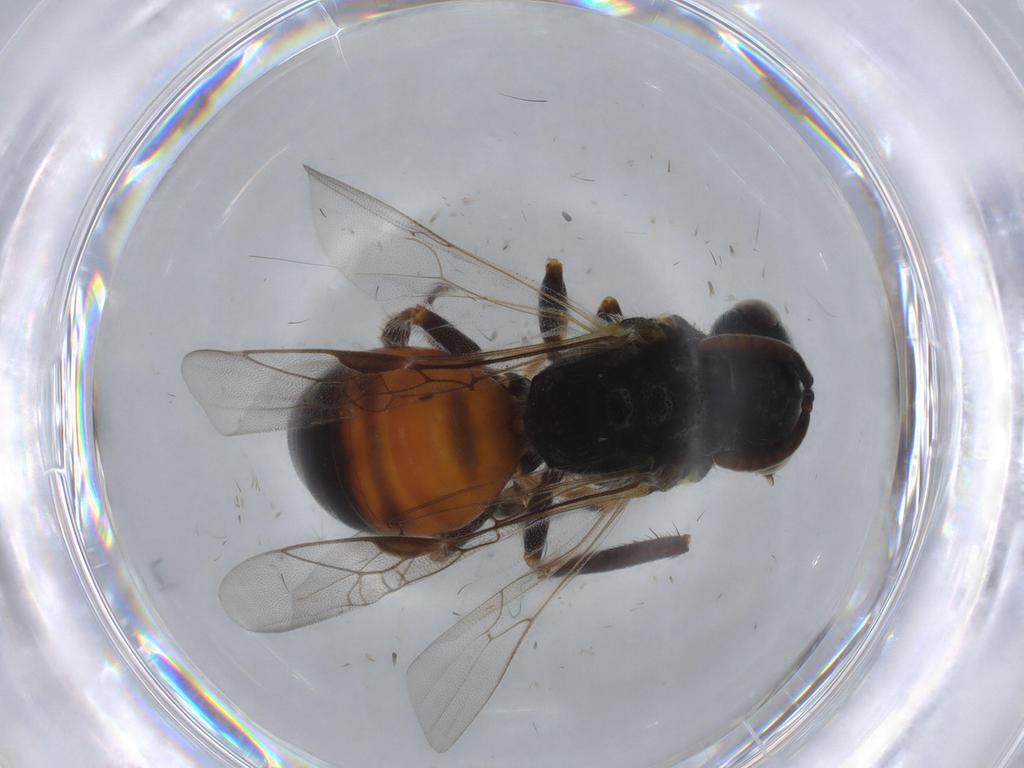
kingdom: Animalia
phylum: Arthropoda
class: Insecta
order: Hymenoptera
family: Scelionidae
